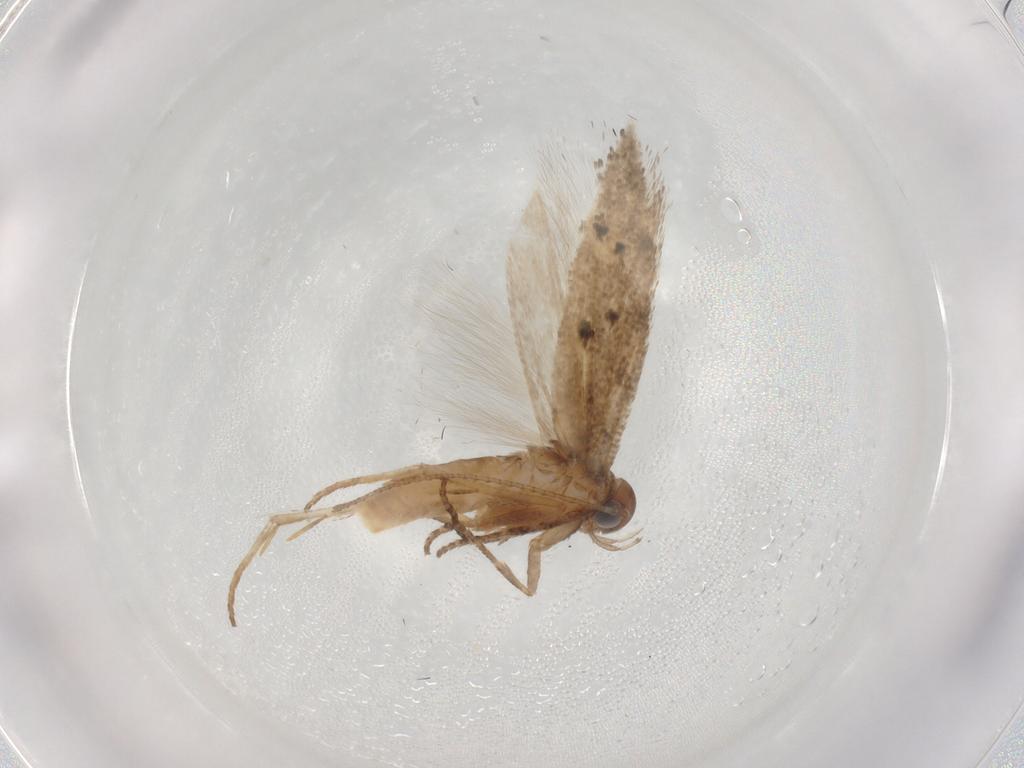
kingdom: Animalia
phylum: Arthropoda
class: Insecta
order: Lepidoptera
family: Gelechiidae
